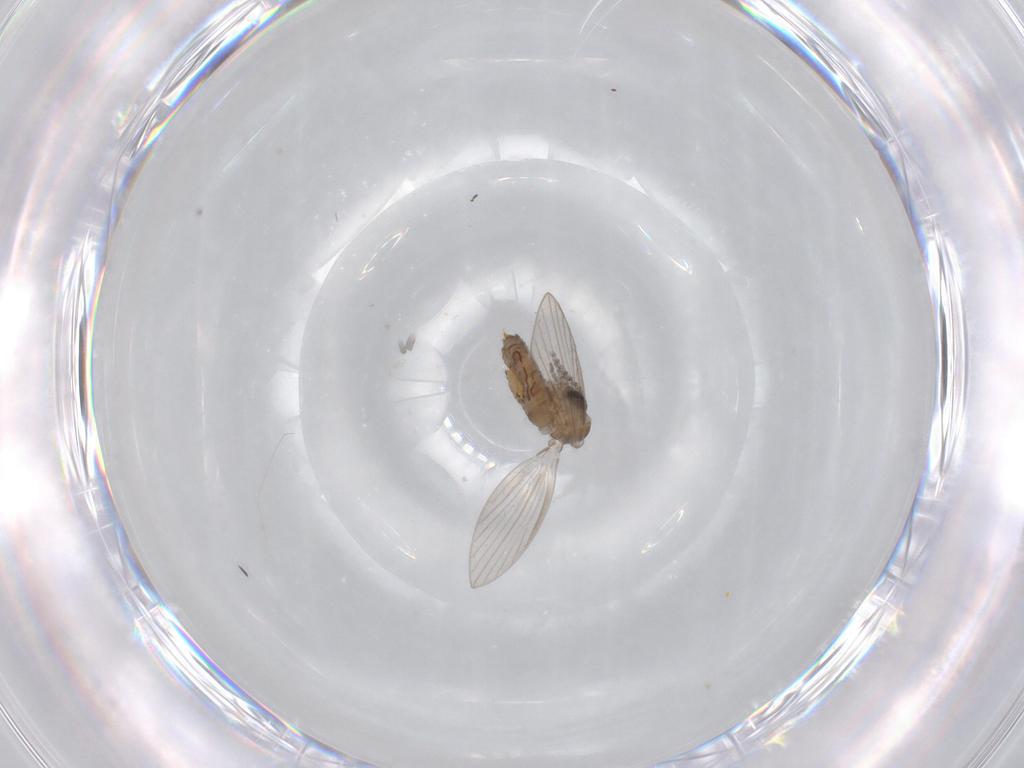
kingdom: Animalia
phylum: Arthropoda
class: Insecta
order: Diptera
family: Psychodidae
